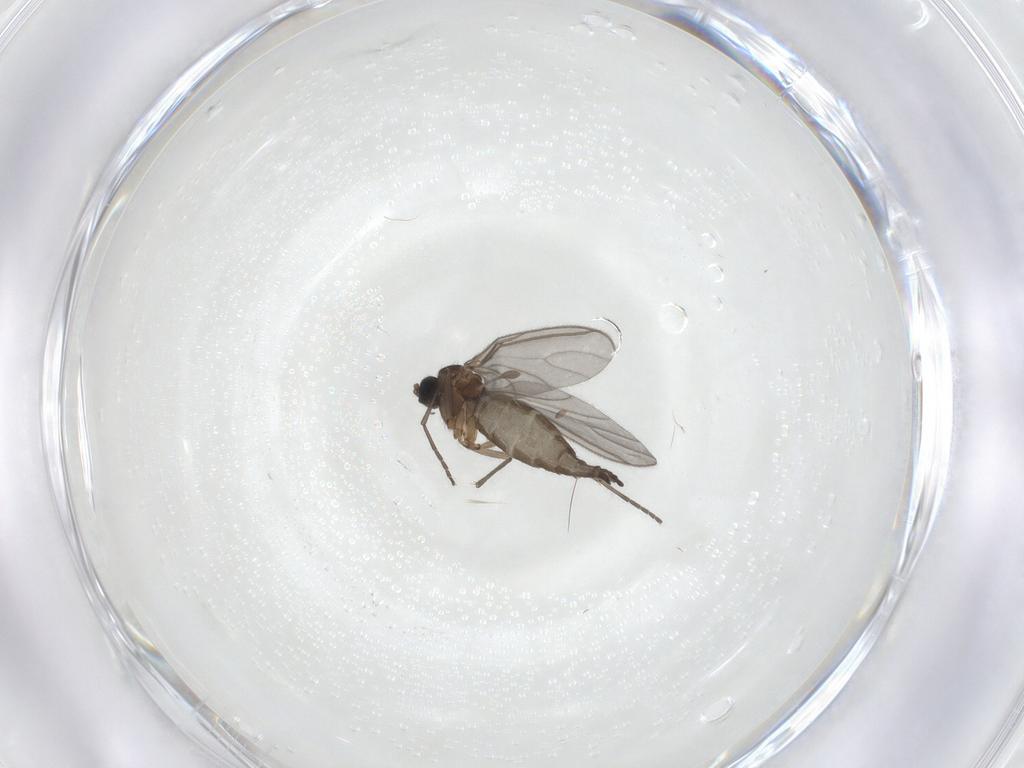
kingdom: Animalia
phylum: Arthropoda
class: Insecta
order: Diptera
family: Sciaridae
